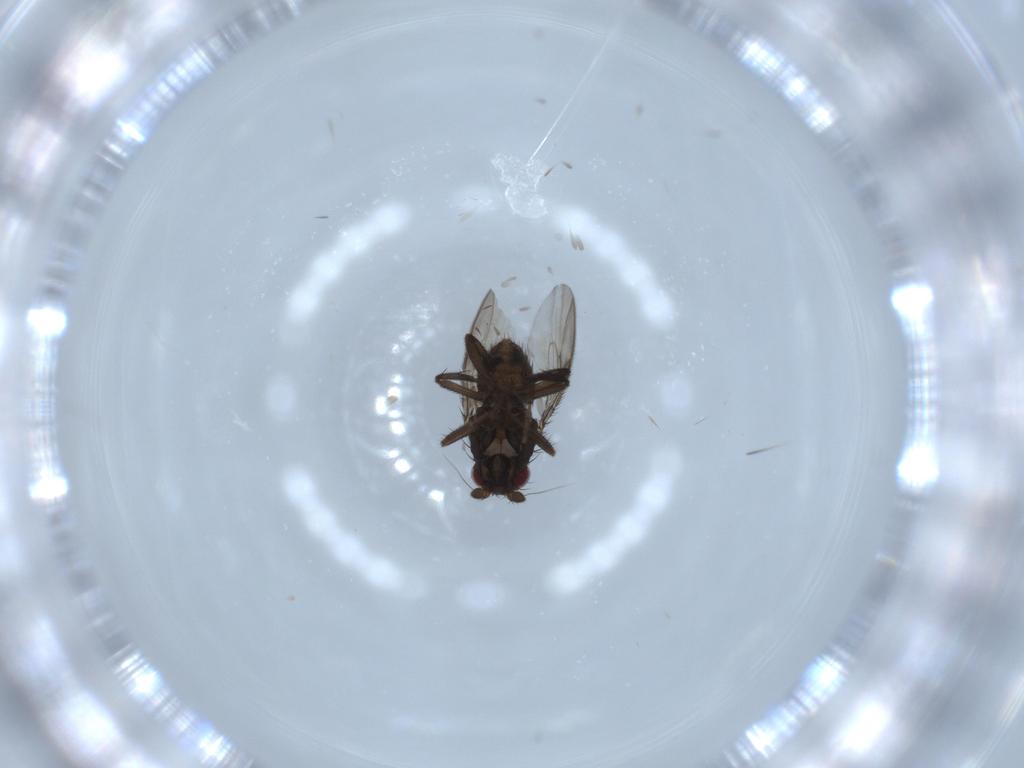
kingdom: Animalia
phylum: Arthropoda
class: Insecta
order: Diptera
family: Sphaeroceridae
